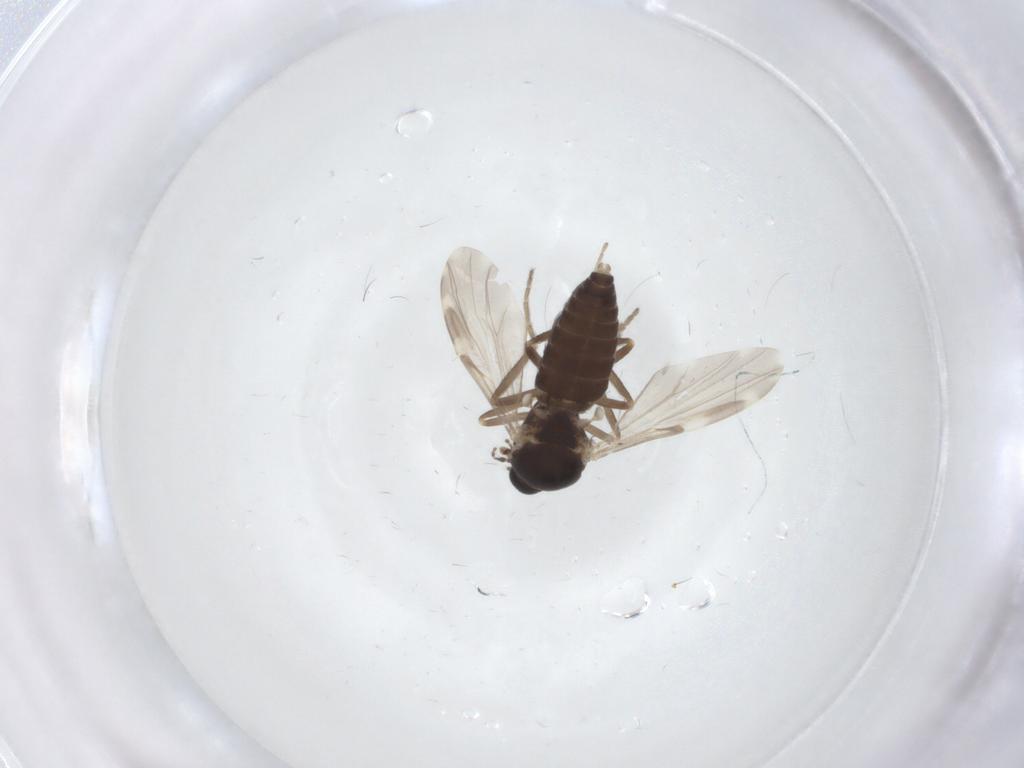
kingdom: Animalia
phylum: Arthropoda
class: Insecta
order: Diptera
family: Ceratopogonidae
